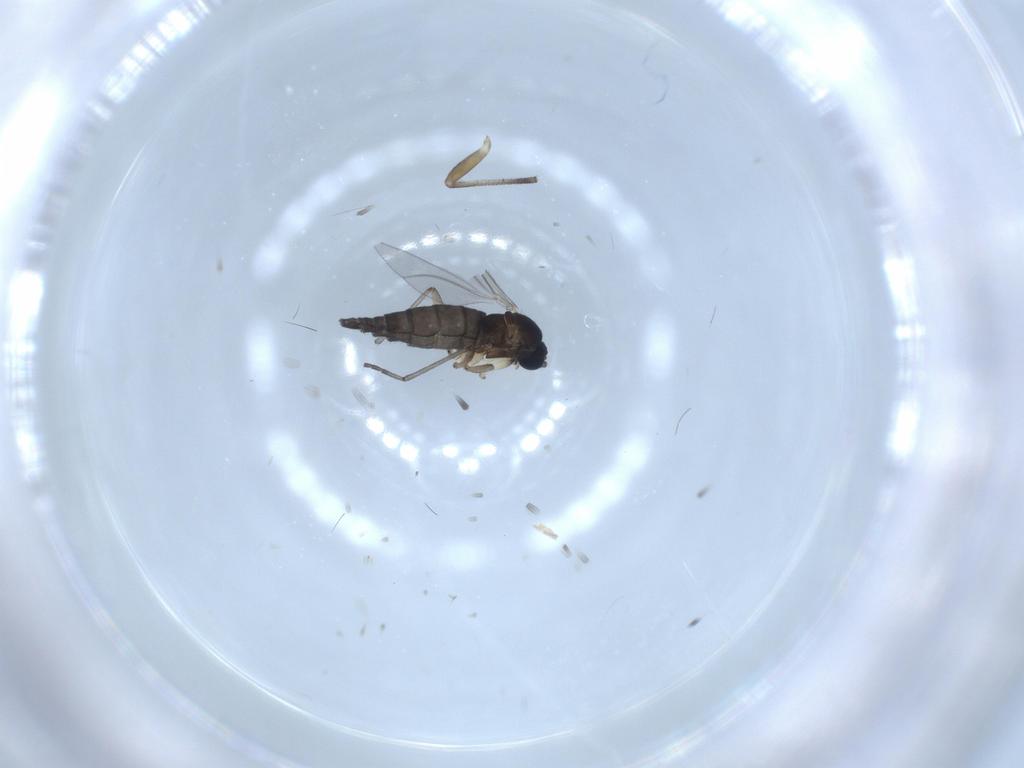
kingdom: Animalia
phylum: Arthropoda
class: Insecta
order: Diptera
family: Sciaridae
